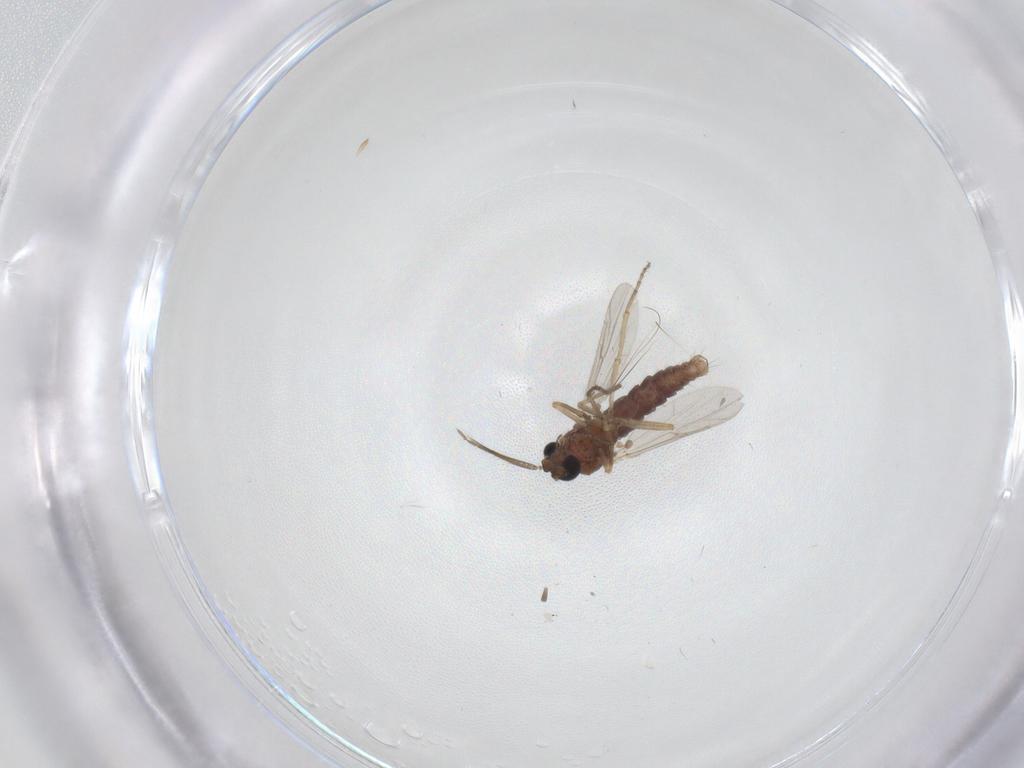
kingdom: Animalia
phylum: Arthropoda
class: Insecta
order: Diptera
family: Ceratopogonidae
